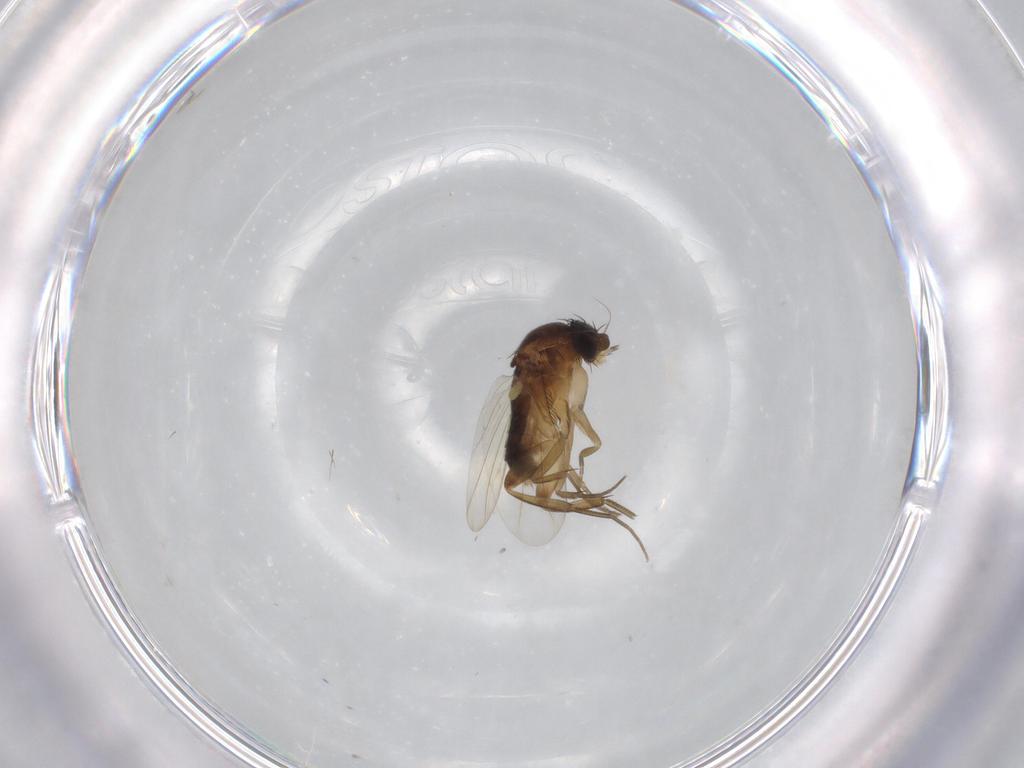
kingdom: Animalia
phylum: Arthropoda
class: Insecta
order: Diptera
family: Phoridae
